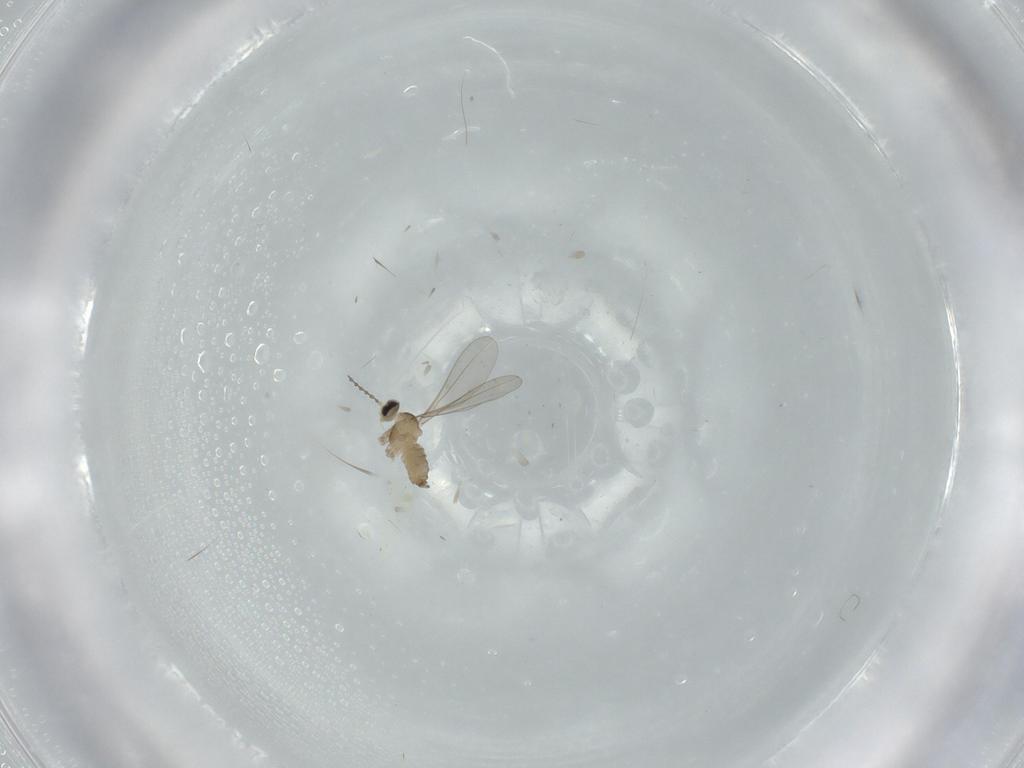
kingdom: Animalia
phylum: Arthropoda
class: Insecta
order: Diptera
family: Cecidomyiidae
